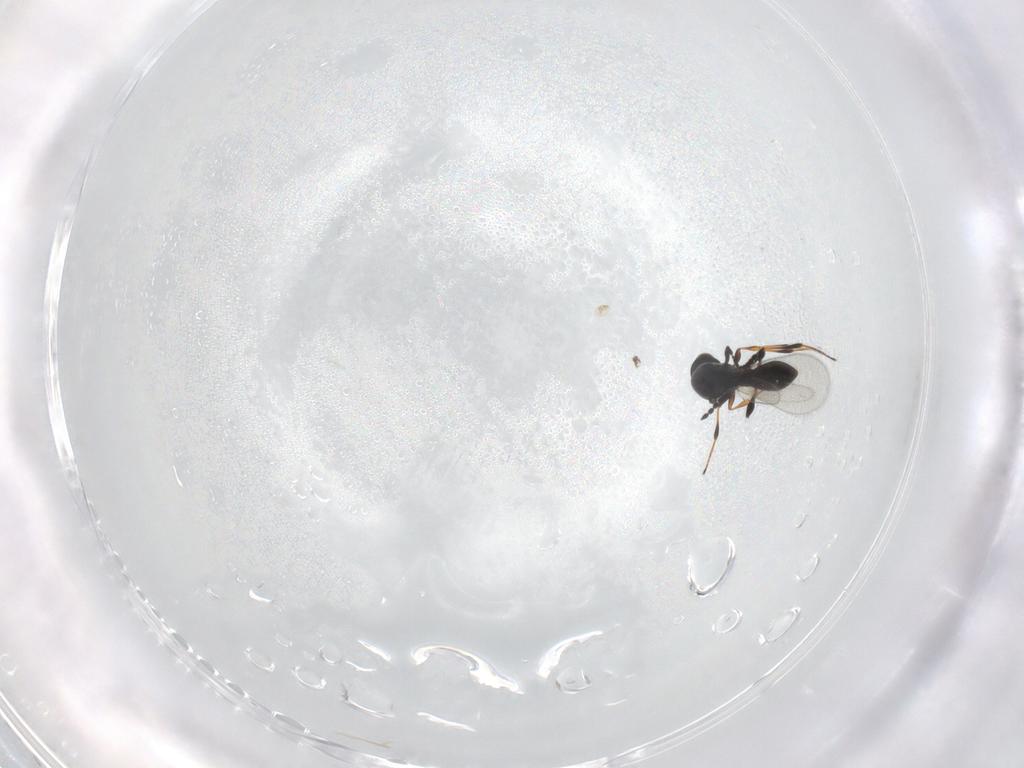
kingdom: Animalia
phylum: Arthropoda
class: Insecta
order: Hymenoptera
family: Platygastridae
